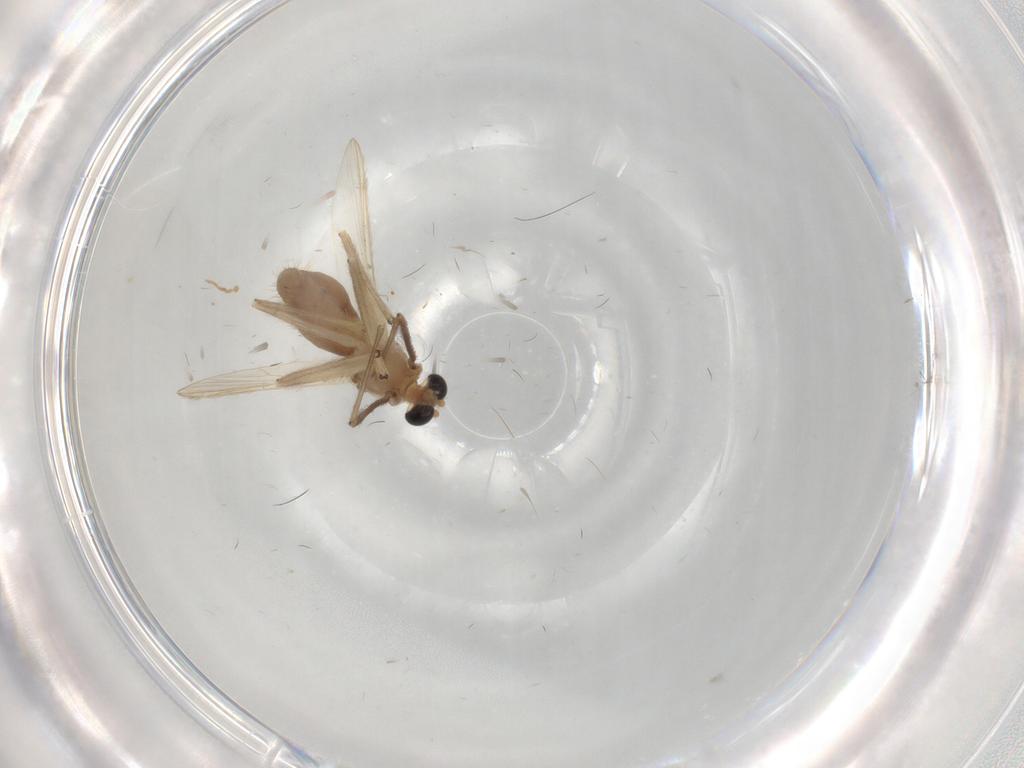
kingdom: Animalia
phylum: Arthropoda
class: Insecta
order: Diptera
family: Chironomidae
